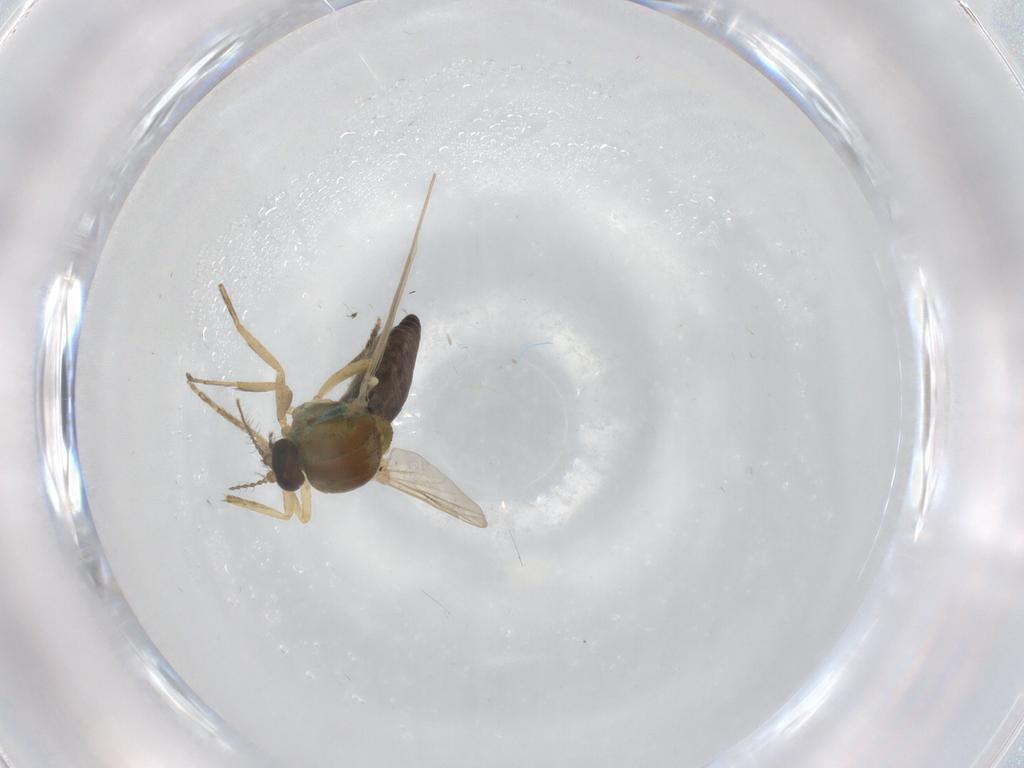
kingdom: Animalia
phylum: Arthropoda
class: Insecta
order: Diptera
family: Ceratopogonidae
